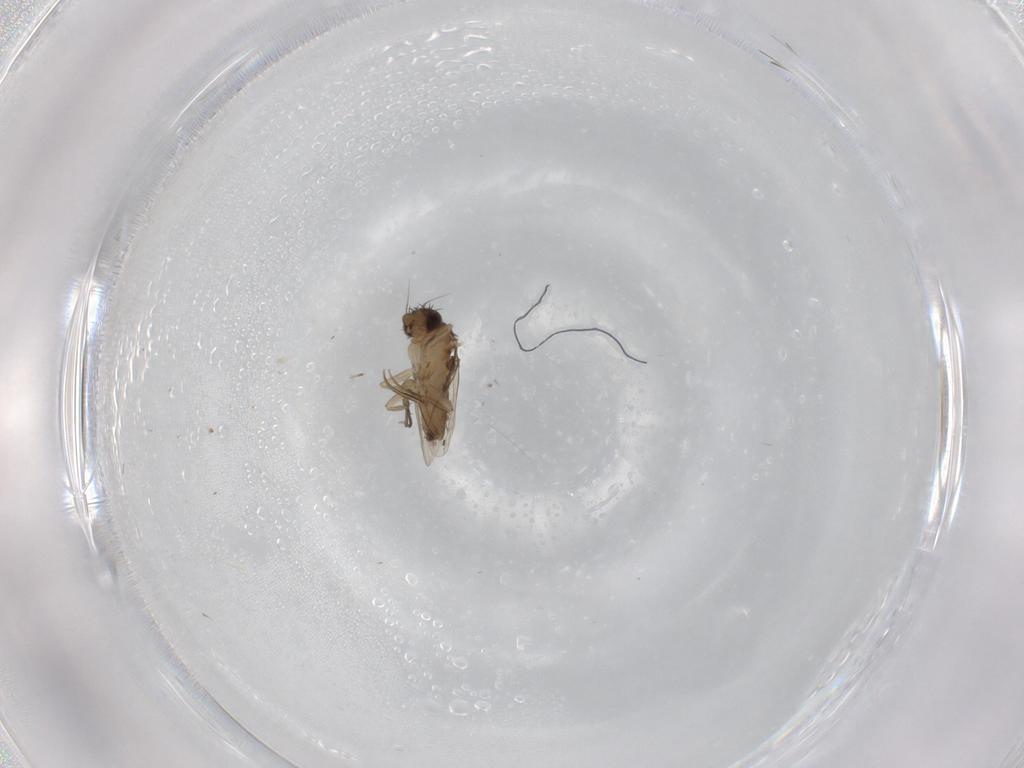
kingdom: Animalia
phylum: Arthropoda
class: Insecta
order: Diptera
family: Phoridae
